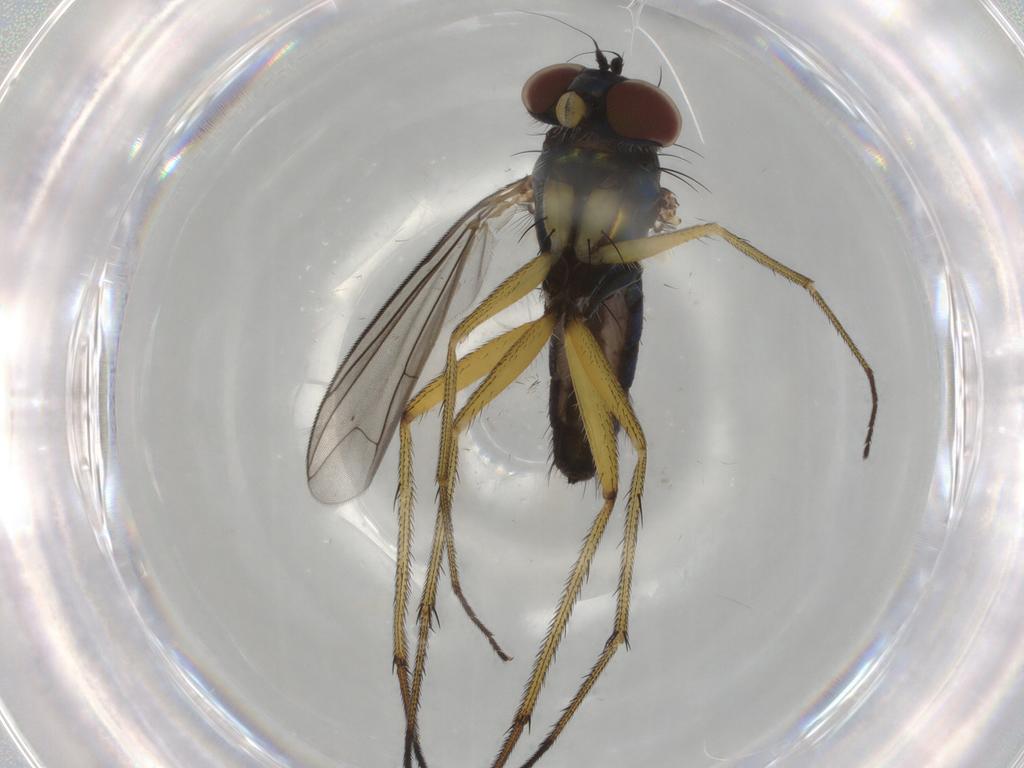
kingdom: Animalia
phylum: Arthropoda
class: Insecta
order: Diptera
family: Dolichopodidae
